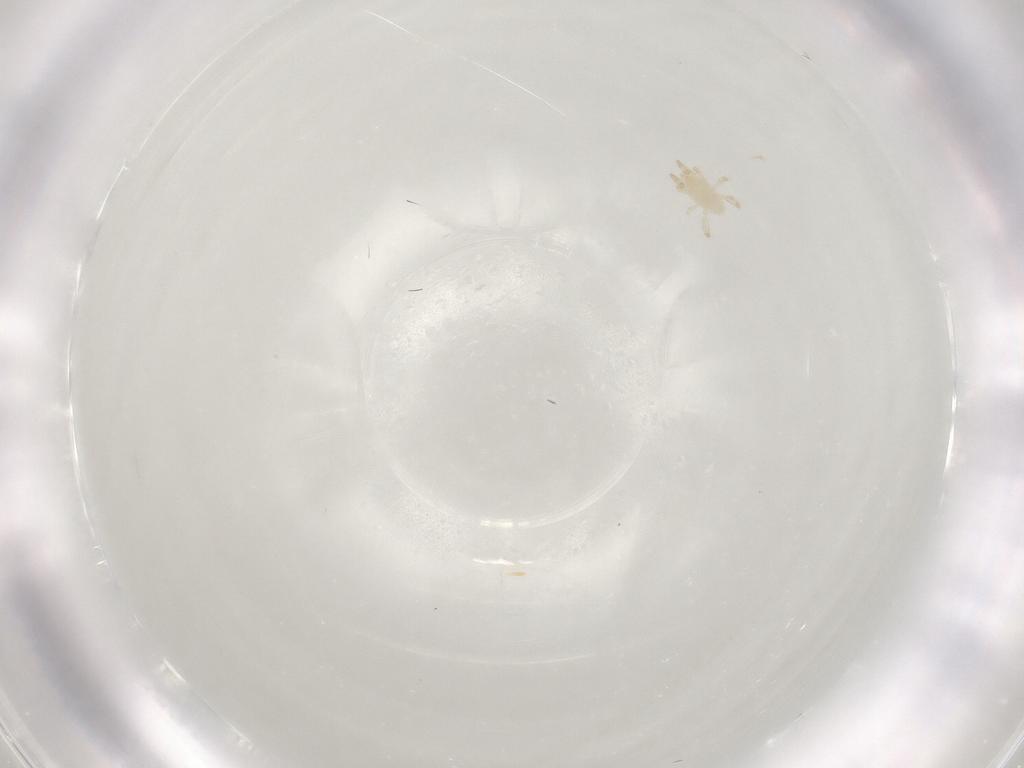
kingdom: Animalia
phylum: Arthropoda
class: Arachnida
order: Mesostigmata
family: Phytoseiidae
